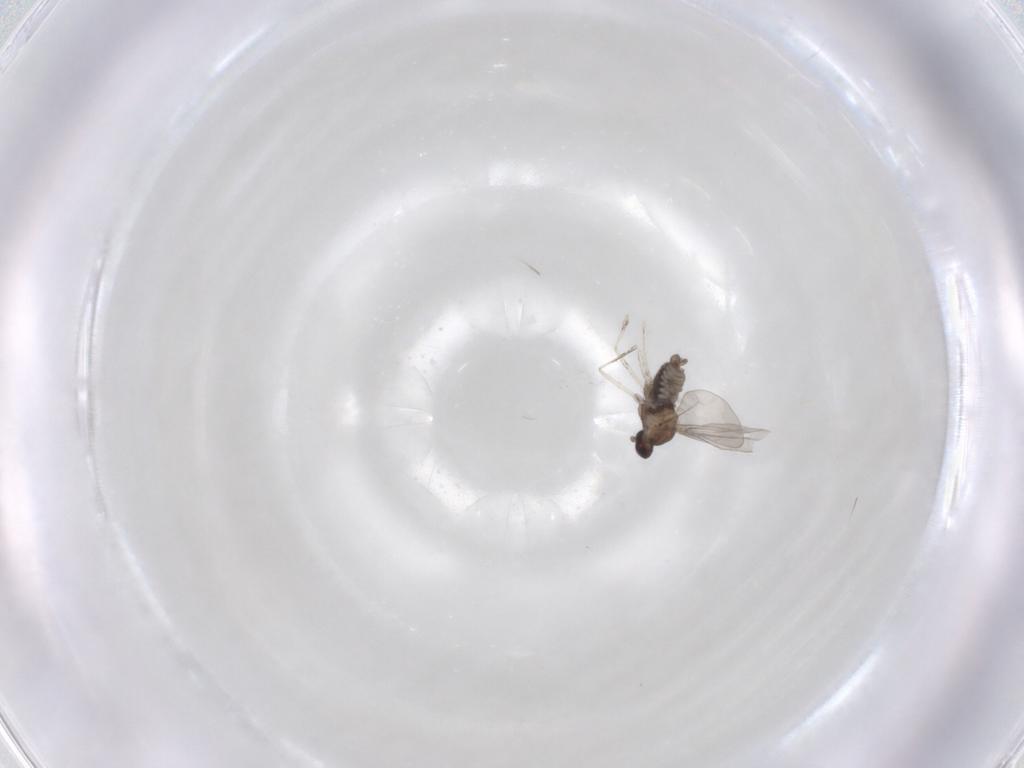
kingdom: Animalia
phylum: Arthropoda
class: Insecta
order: Diptera
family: Cecidomyiidae
